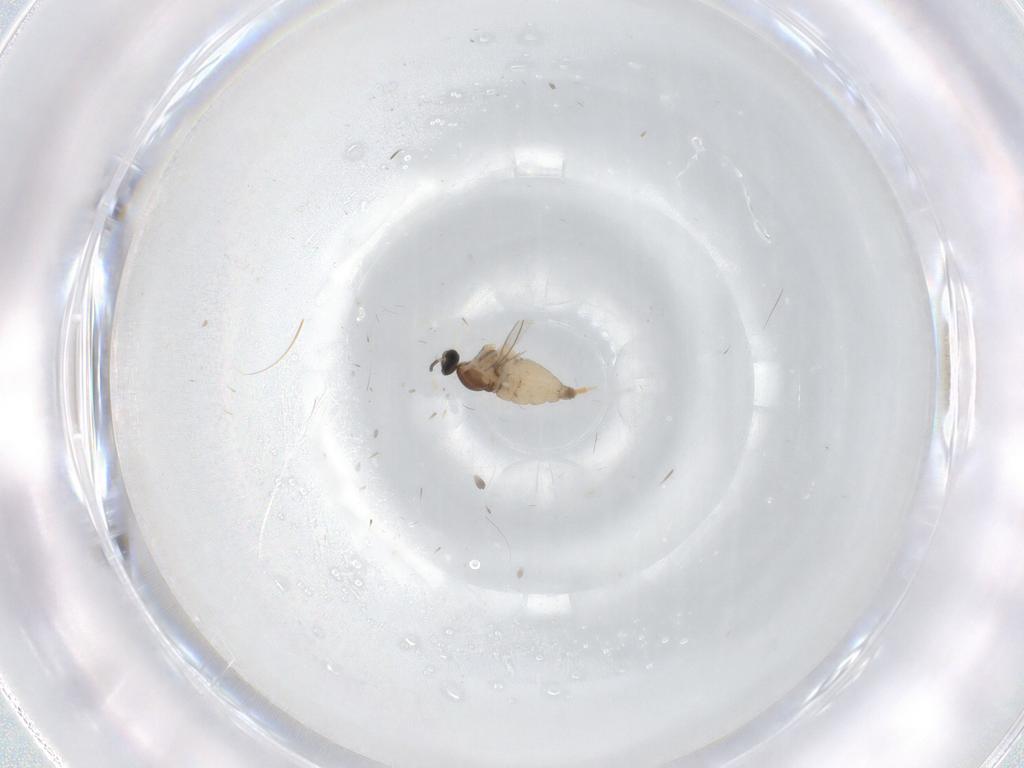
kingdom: Animalia
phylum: Arthropoda
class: Insecta
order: Diptera
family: Cecidomyiidae
